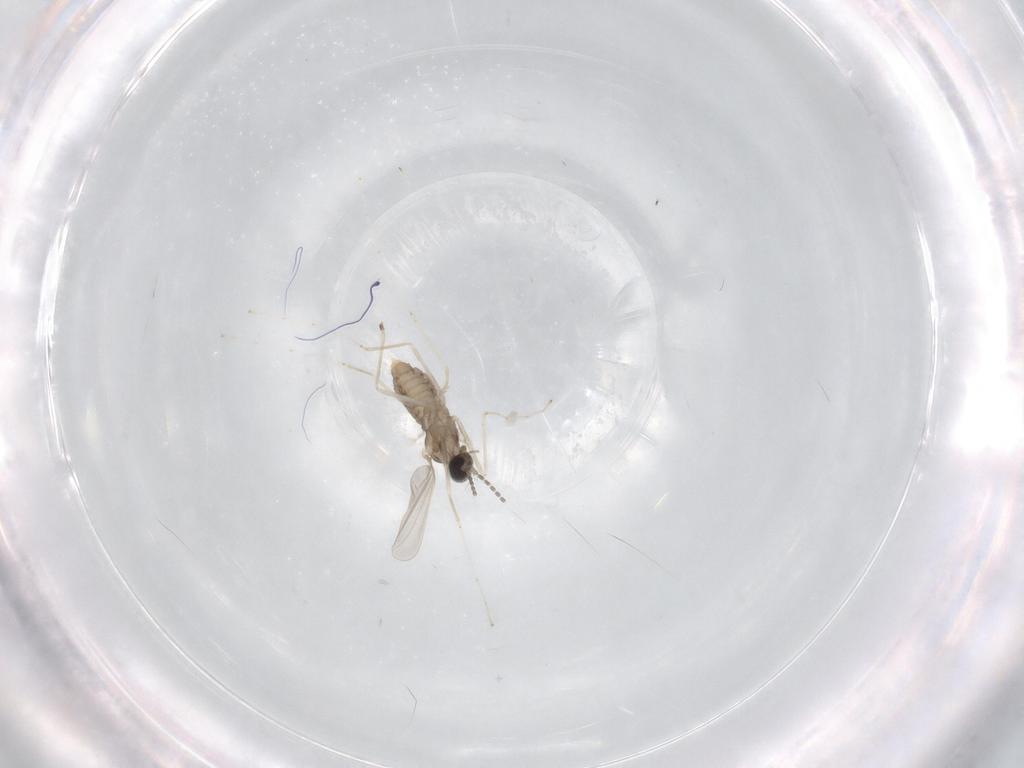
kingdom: Animalia
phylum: Arthropoda
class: Insecta
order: Diptera
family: Cecidomyiidae
